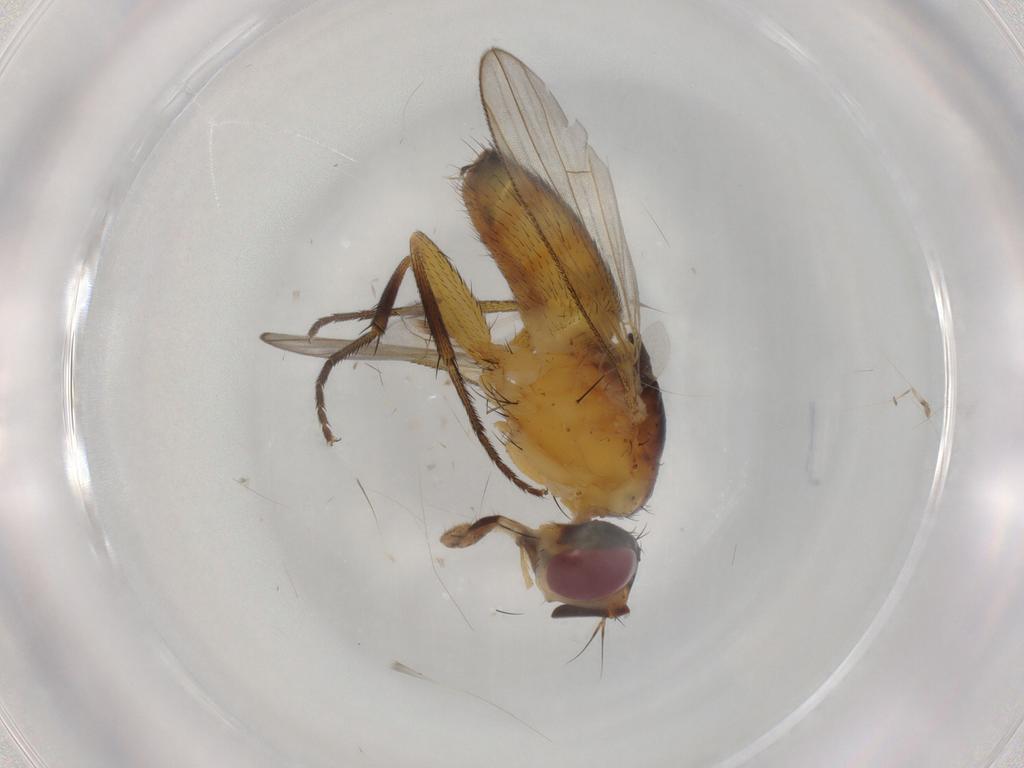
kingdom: Animalia
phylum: Arthropoda
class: Insecta
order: Diptera
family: Muscidae
